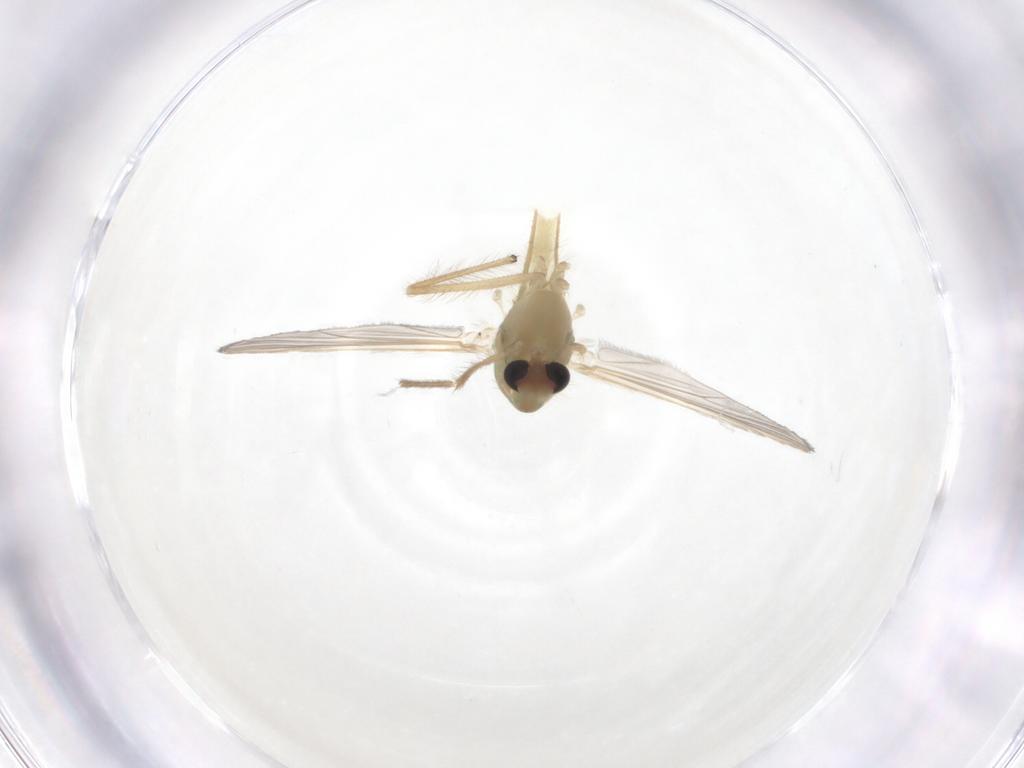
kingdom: Animalia
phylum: Arthropoda
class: Insecta
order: Diptera
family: Chironomidae
